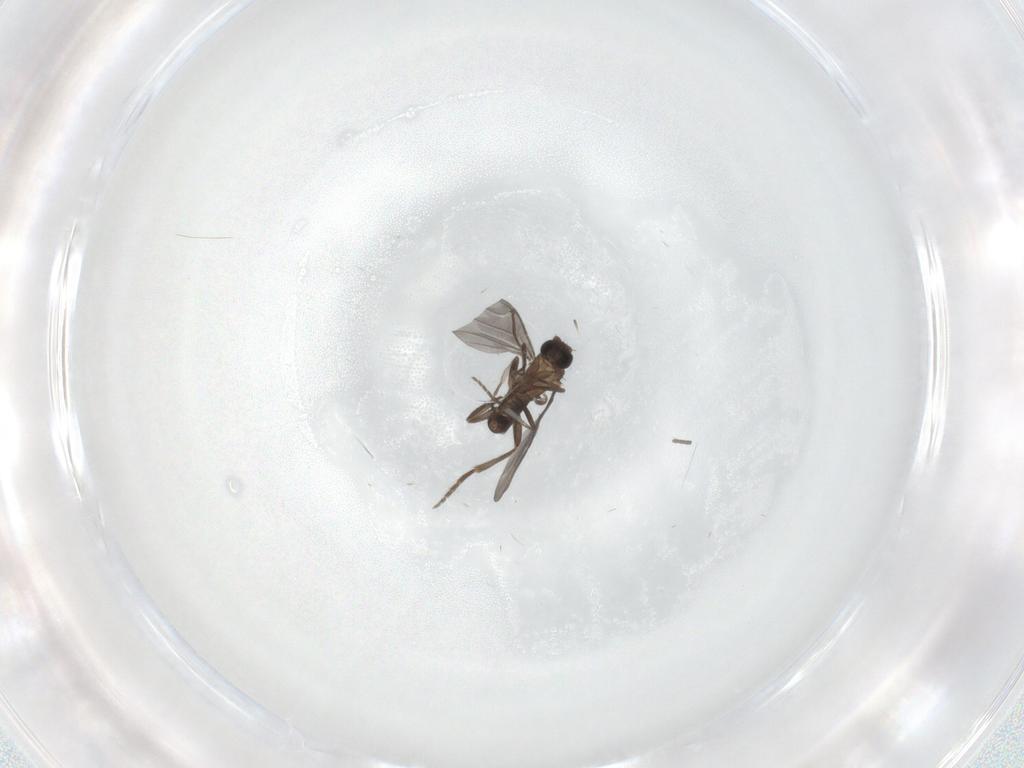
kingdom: Animalia
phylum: Arthropoda
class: Insecta
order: Diptera
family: Phoridae
